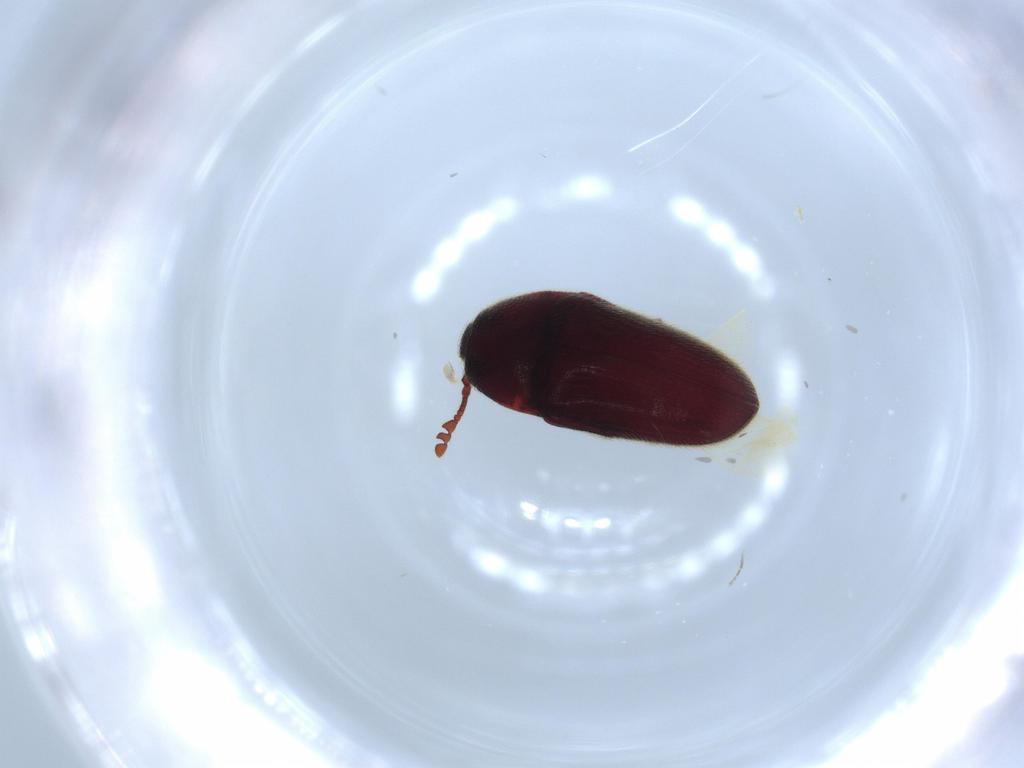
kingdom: Animalia
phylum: Arthropoda
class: Insecta
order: Coleoptera
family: Throscidae
